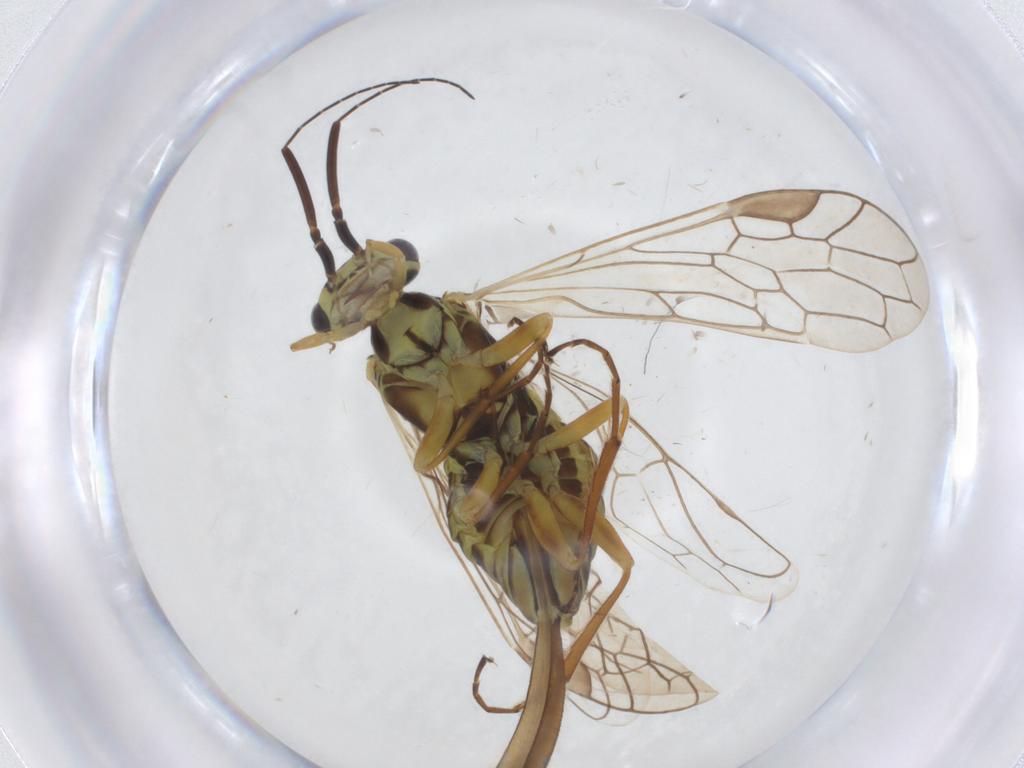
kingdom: Animalia
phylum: Arthropoda
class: Insecta
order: Hymenoptera
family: Xyelidae
